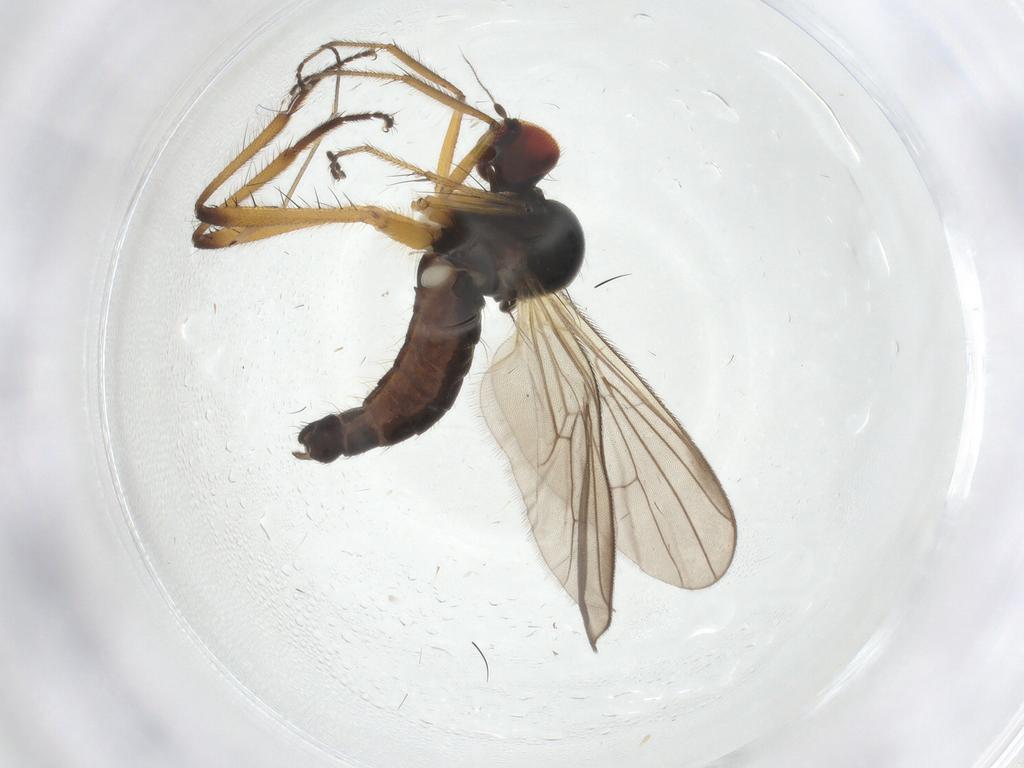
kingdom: Animalia
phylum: Arthropoda
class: Insecta
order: Diptera
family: Hybotidae
